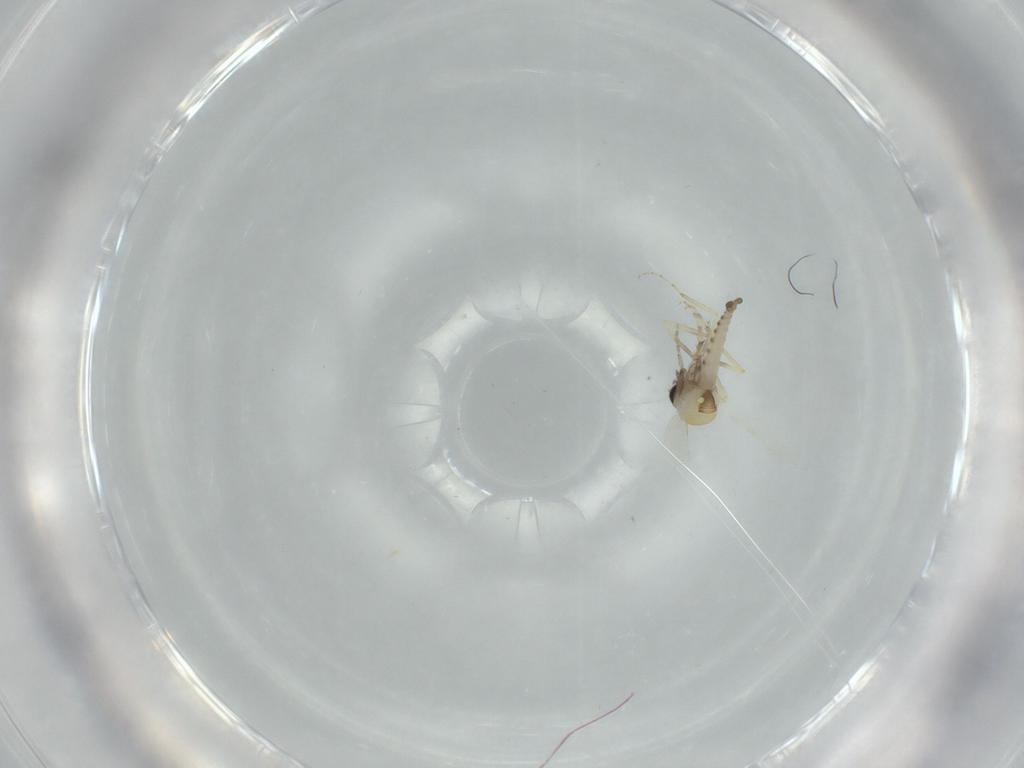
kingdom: Animalia
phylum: Arthropoda
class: Insecta
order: Diptera
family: Ceratopogonidae
